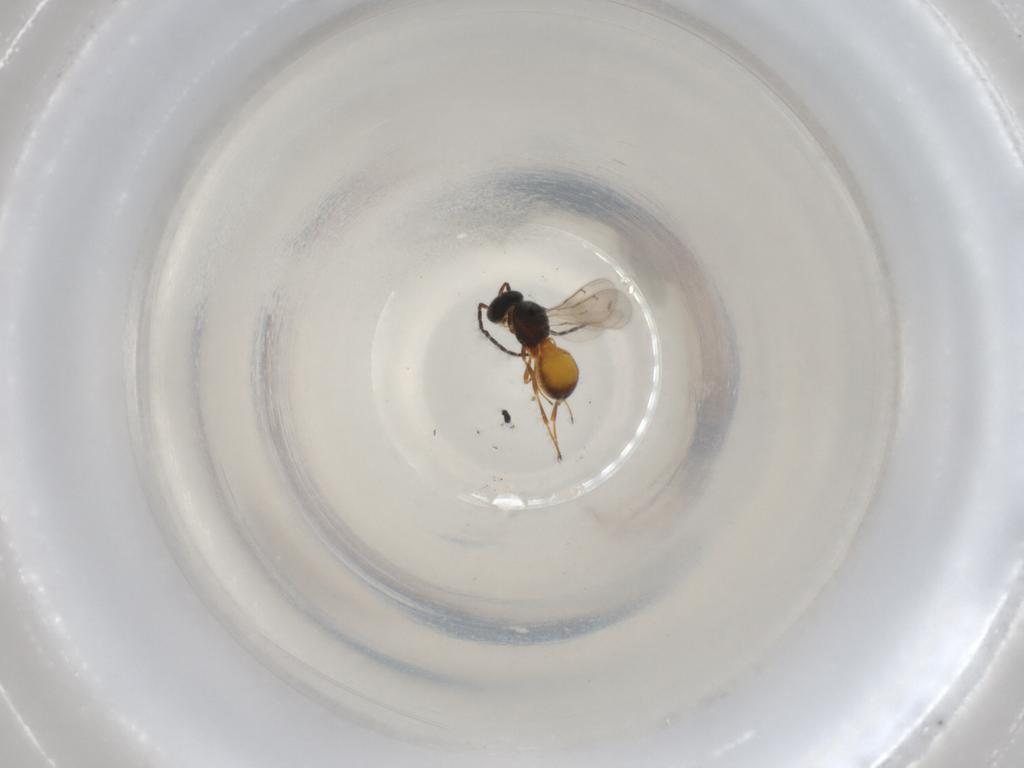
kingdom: Animalia
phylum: Arthropoda
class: Insecta
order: Hymenoptera
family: Scelionidae
